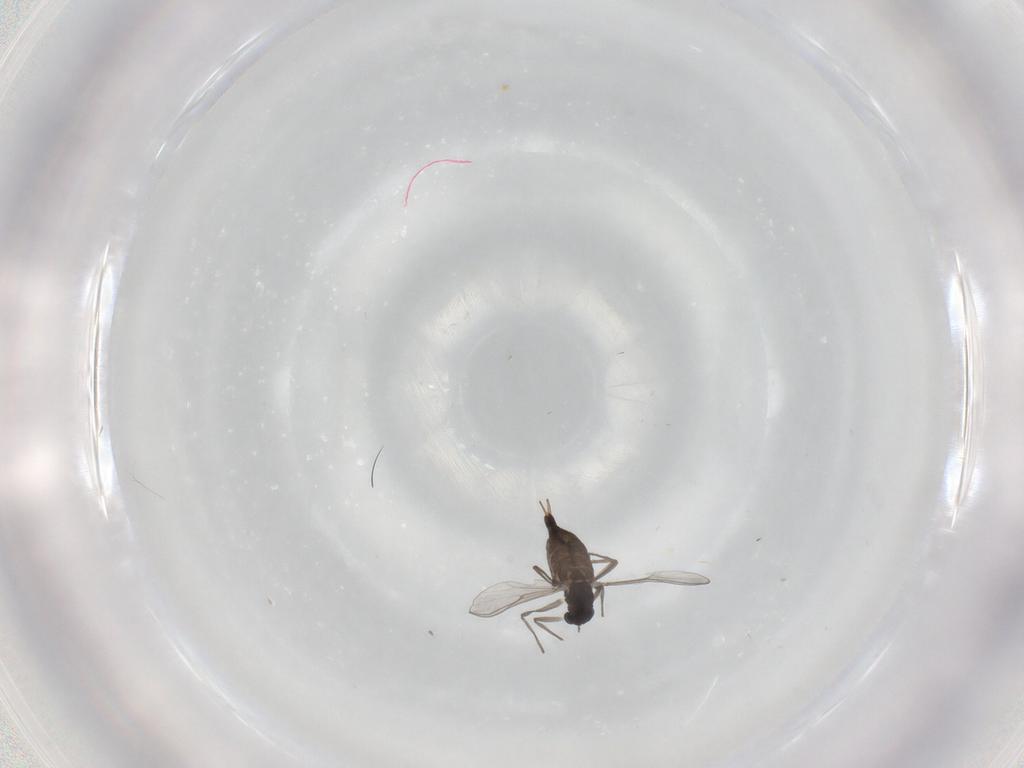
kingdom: Animalia
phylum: Arthropoda
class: Insecta
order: Diptera
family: Chironomidae
